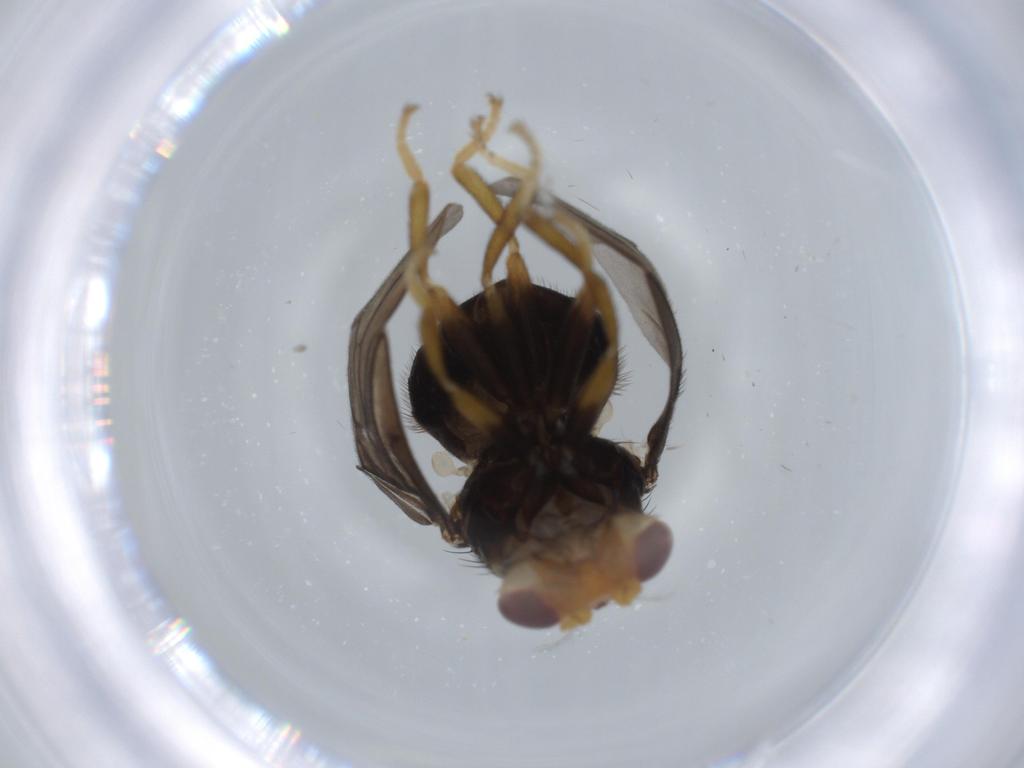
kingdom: Animalia
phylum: Arthropoda
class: Insecta
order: Diptera
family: Ulidiidae
